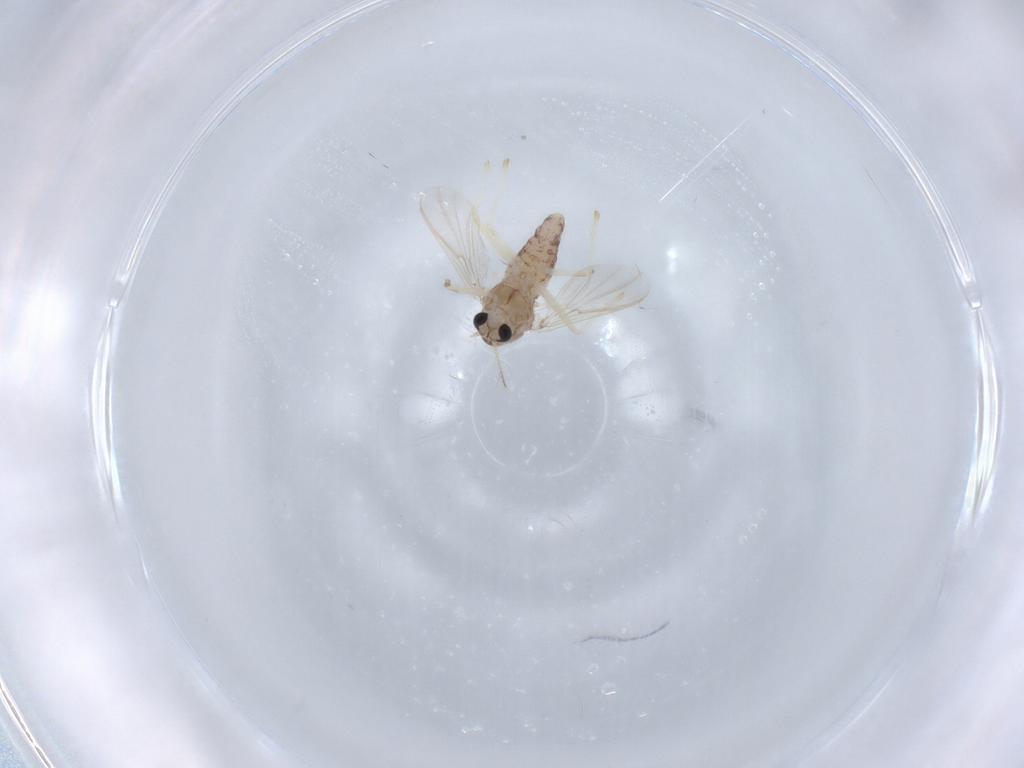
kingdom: Animalia
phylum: Arthropoda
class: Insecta
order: Diptera
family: Chironomidae
